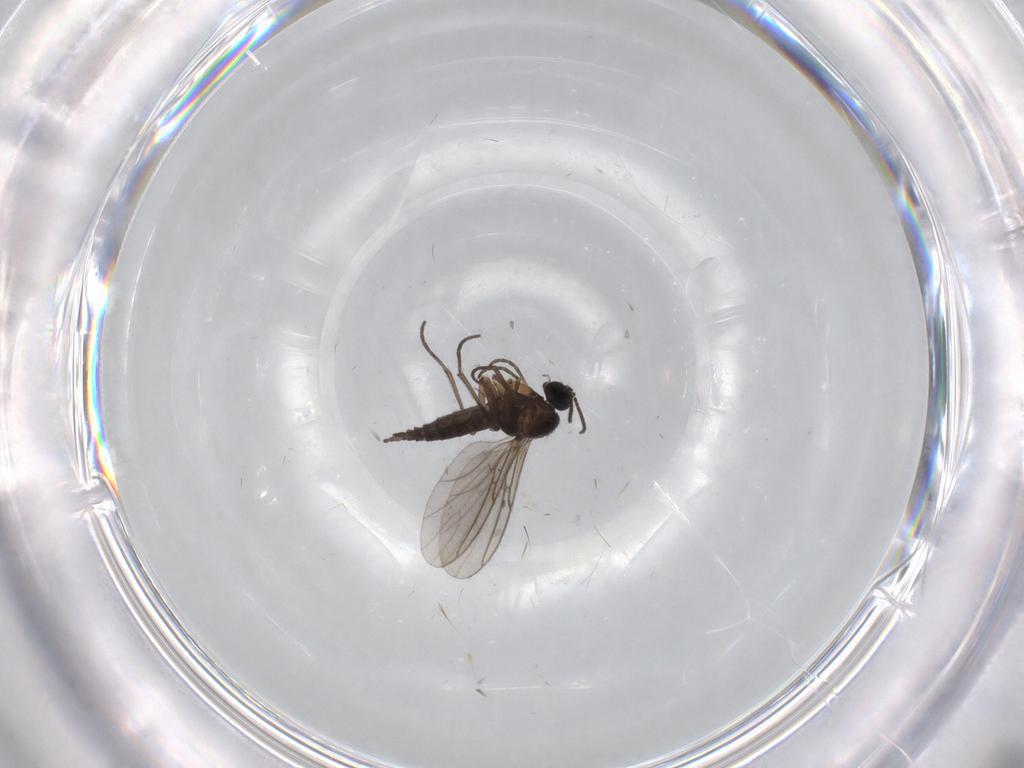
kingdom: Animalia
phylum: Arthropoda
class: Insecta
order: Diptera
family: Sciaridae
